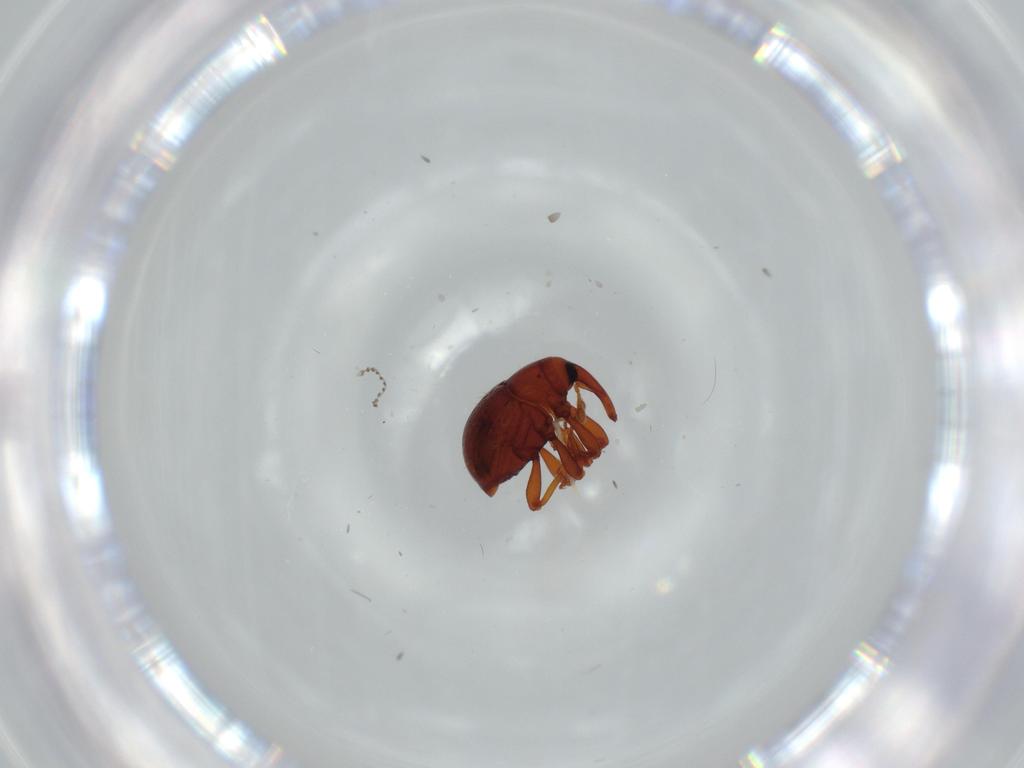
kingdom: Animalia
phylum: Arthropoda
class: Insecta
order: Coleoptera
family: Curculionidae
